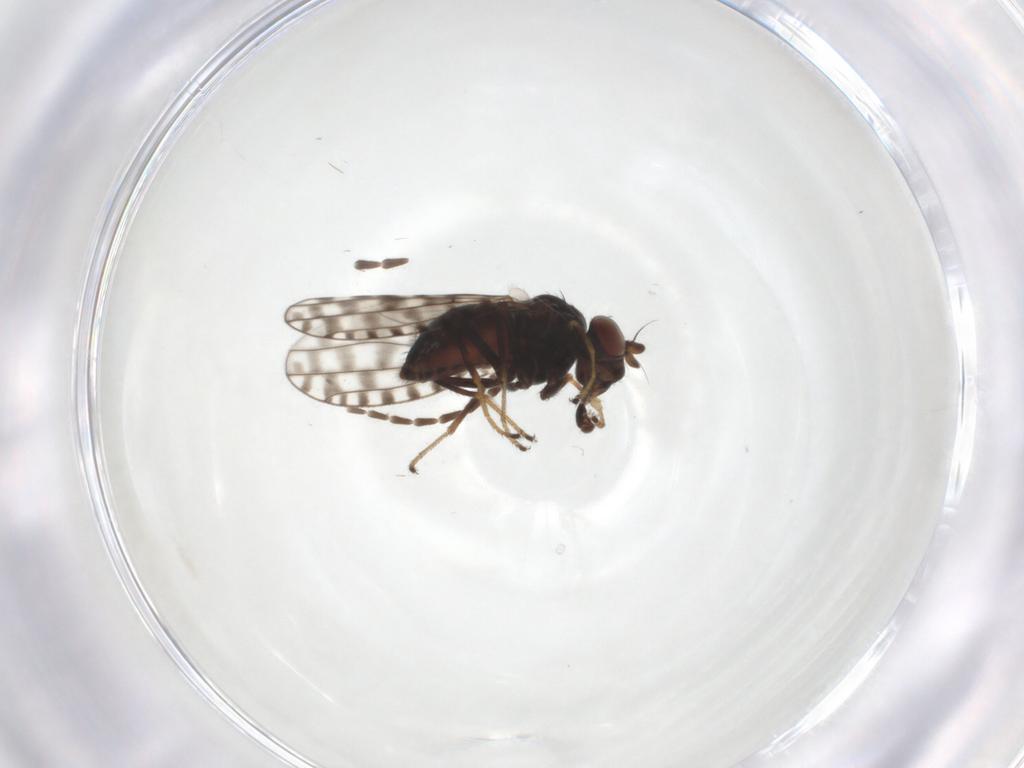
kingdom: Animalia
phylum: Arthropoda
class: Insecta
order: Diptera
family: Ephydridae
